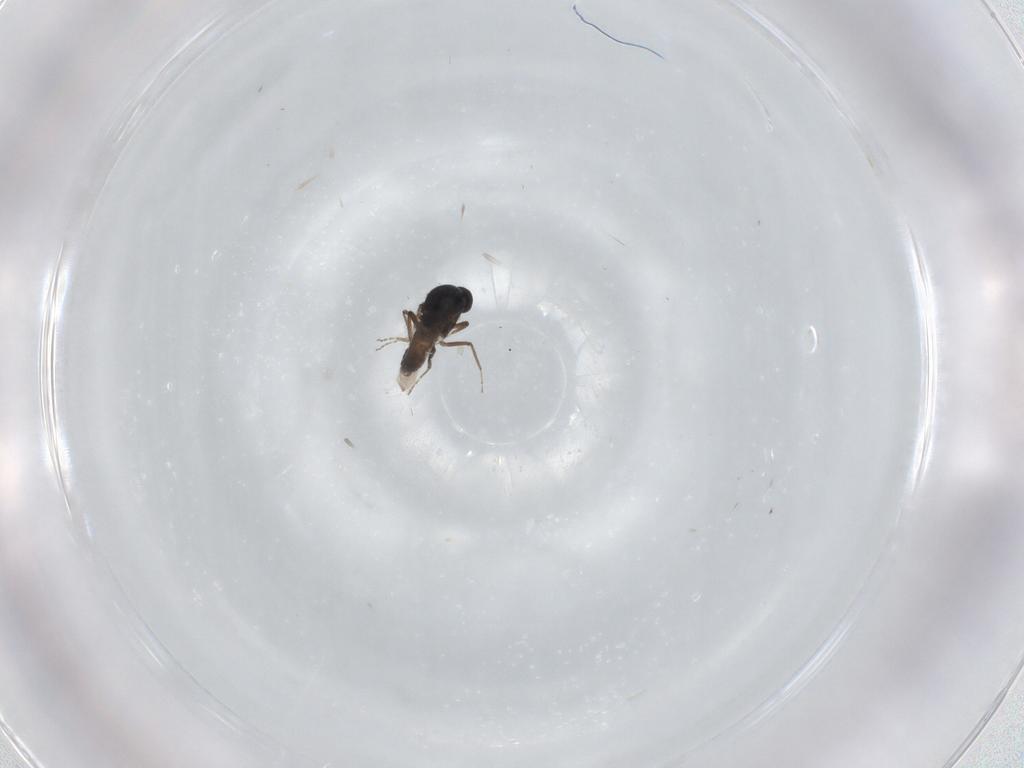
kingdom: Animalia
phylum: Arthropoda
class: Insecta
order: Diptera
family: Ceratopogonidae
